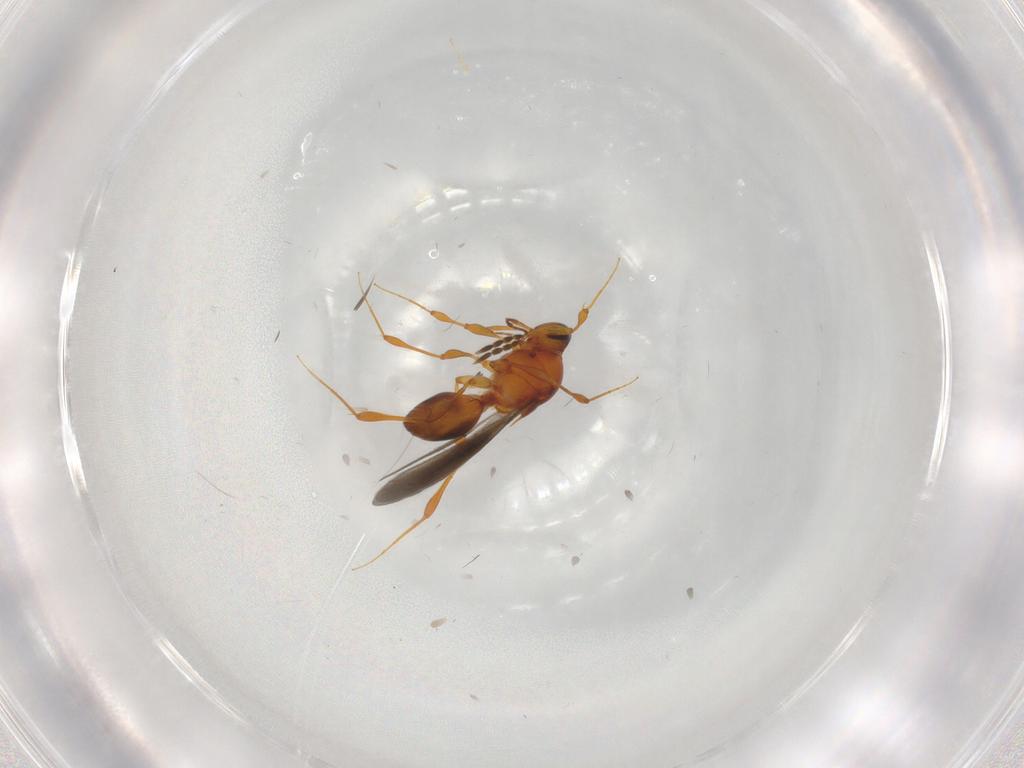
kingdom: Animalia
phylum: Arthropoda
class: Insecta
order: Hymenoptera
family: Platygastridae
